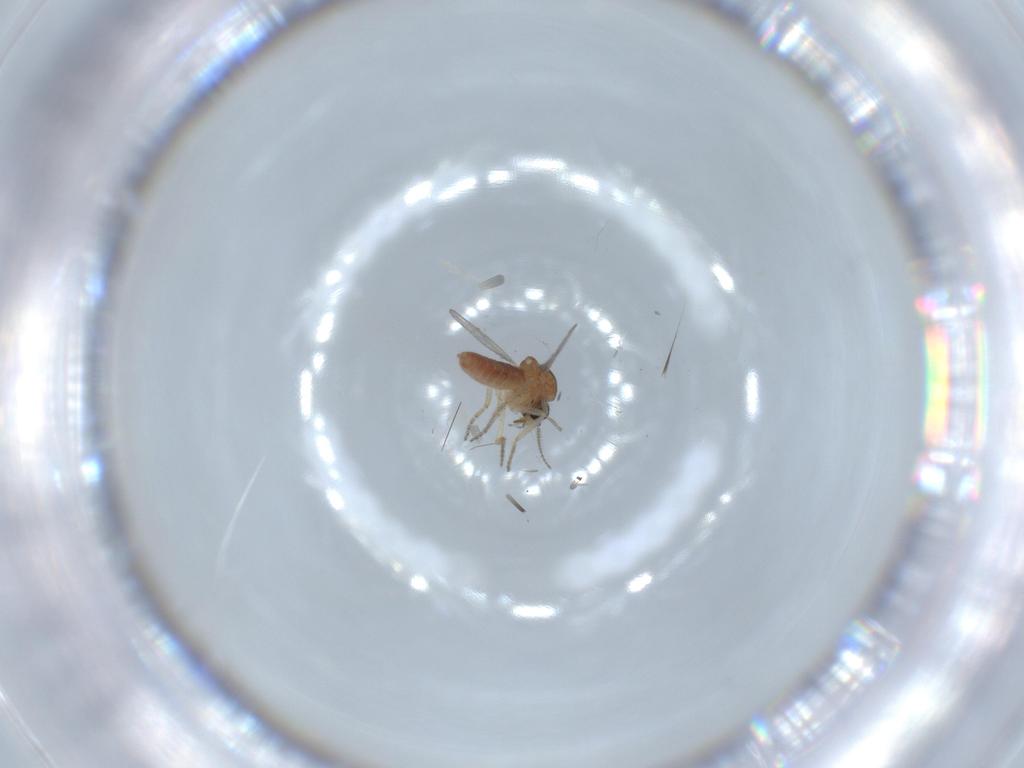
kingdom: Animalia
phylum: Arthropoda
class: Insecta
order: Diptera
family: Ceratopogonidae
